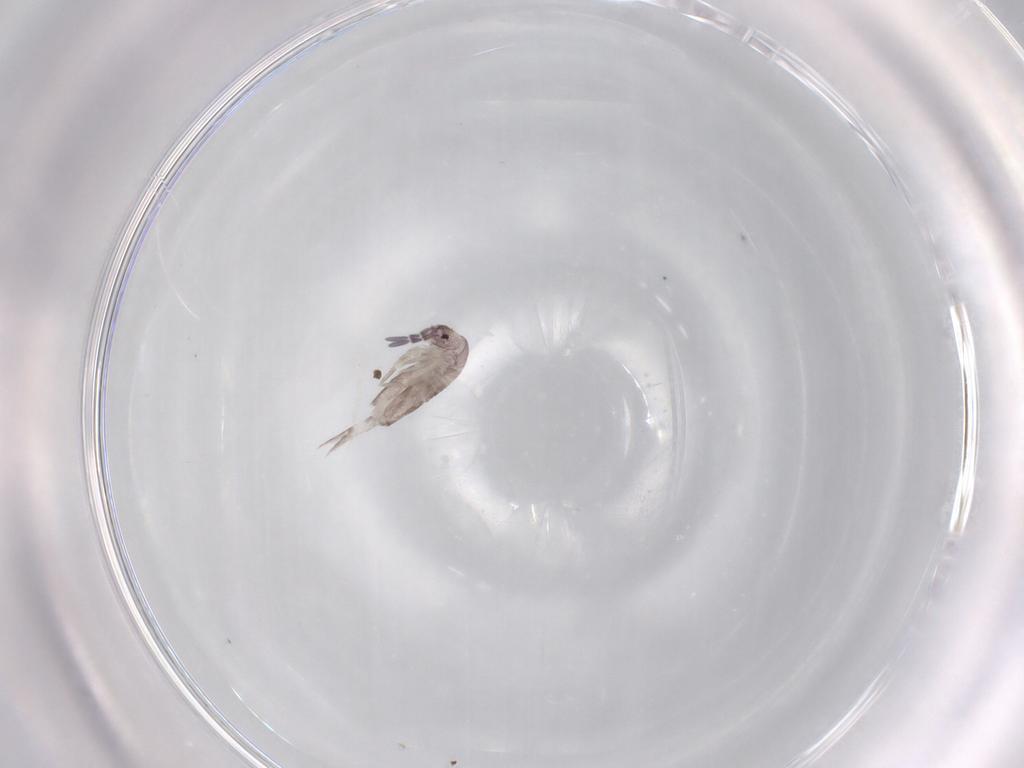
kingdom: Animalia
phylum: Arthropoda
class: Collembola
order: Entomobryomorpha
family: Entomobryidae
